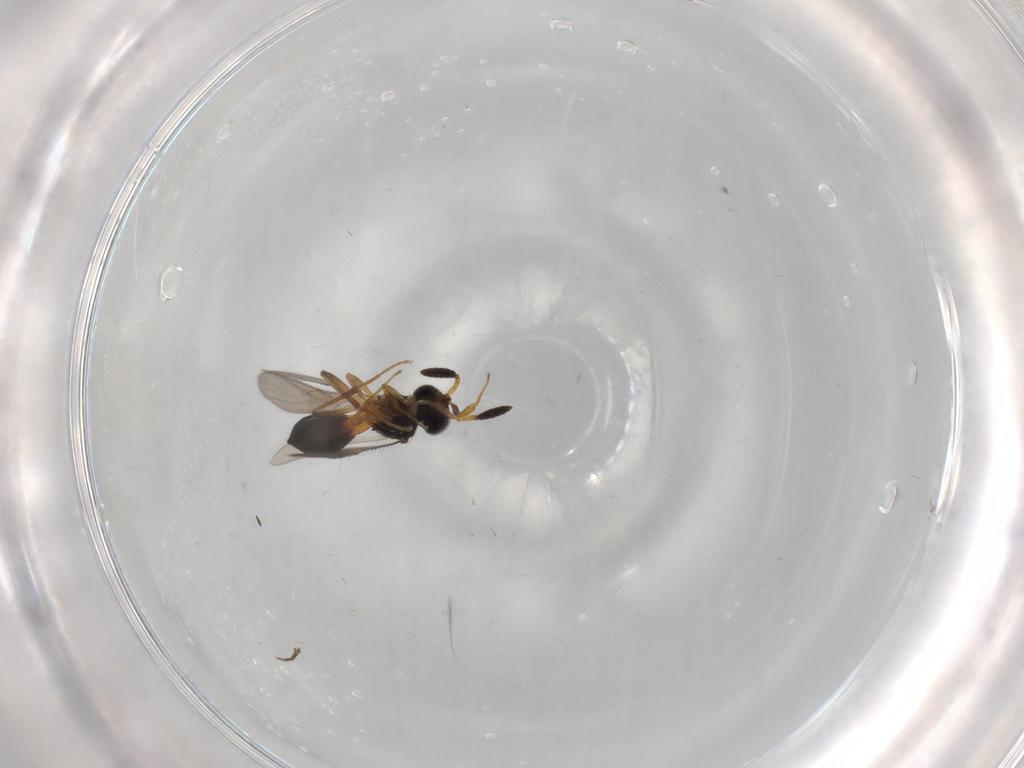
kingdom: Animalia
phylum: Arthropoda
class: Insecta
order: Hymenoptera
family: Scelionidae
